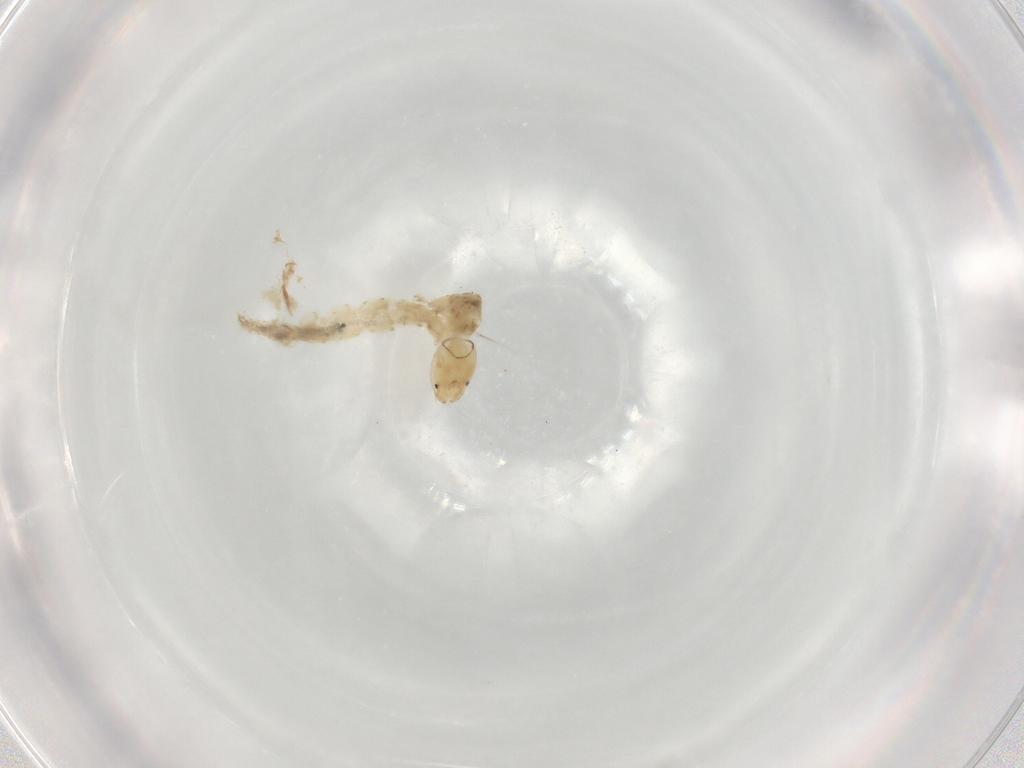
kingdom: Animalia
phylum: Arthropoda
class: Insecta
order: Diptera
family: Chironomidae
